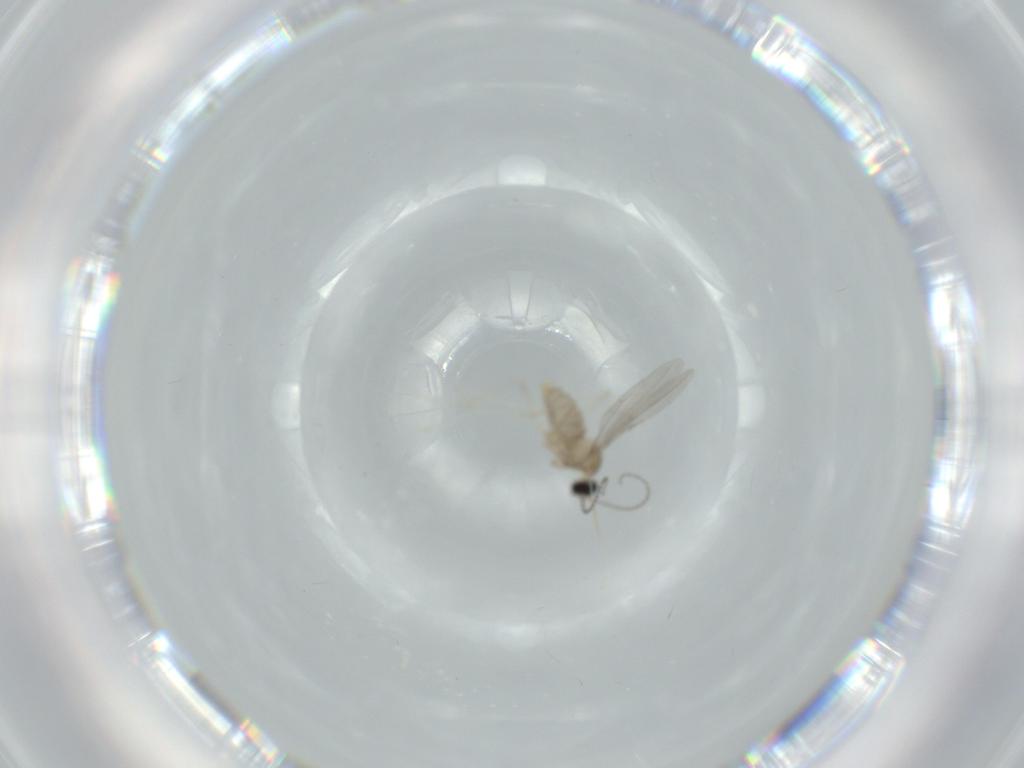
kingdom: Animalia
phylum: Arthropoda
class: Insecta
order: Diptera
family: Cecidomyiidae
